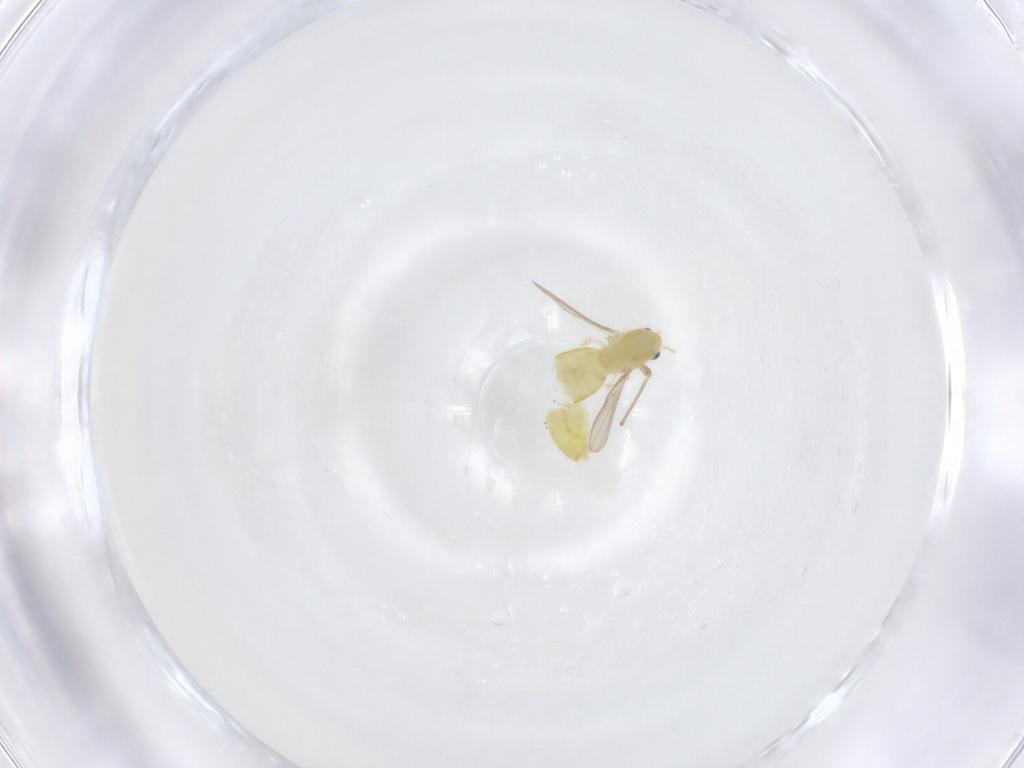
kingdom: Animalia
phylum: Arthropoda
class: Insecta
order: Diptera
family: Chironomidae
